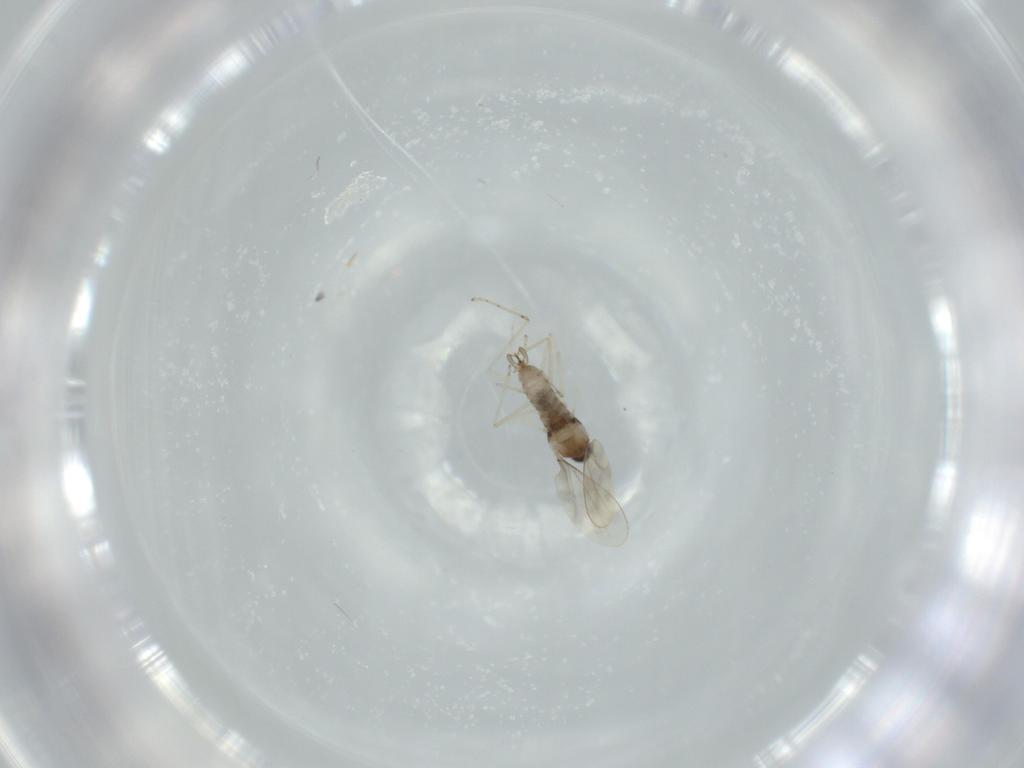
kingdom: Animalia
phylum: Arthropoda
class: Insecta
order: Diptera
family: Cecidomyiidae
